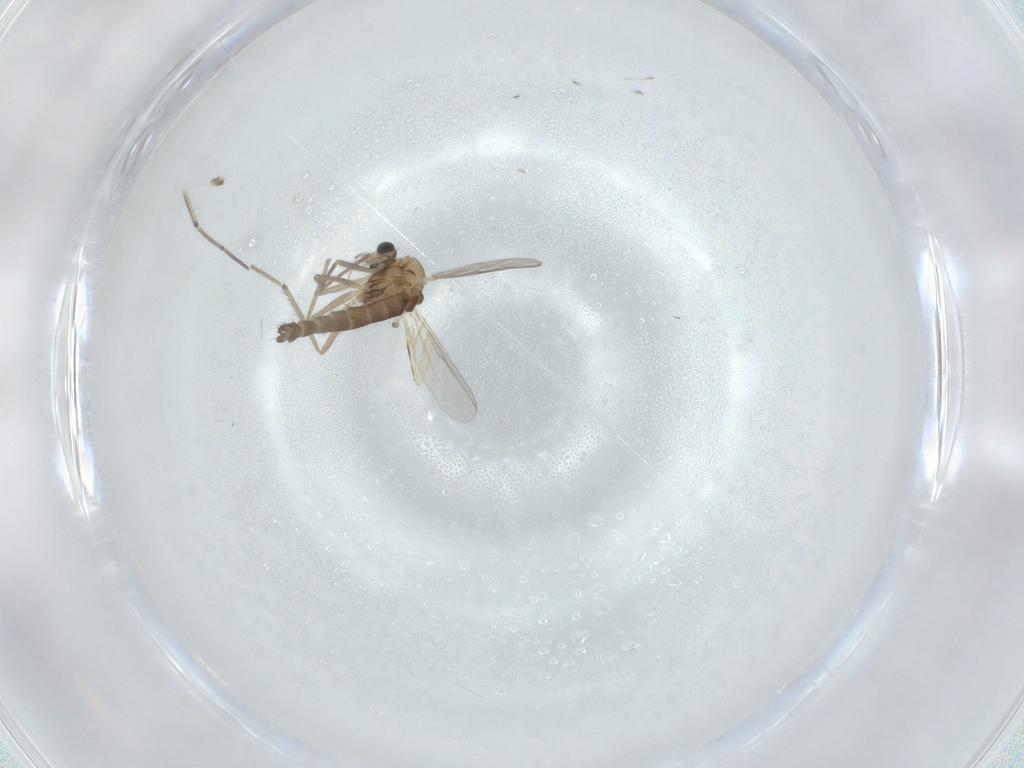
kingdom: Animalia
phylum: Arthropoda
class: Insecta
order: Diptera
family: Chironomidae
